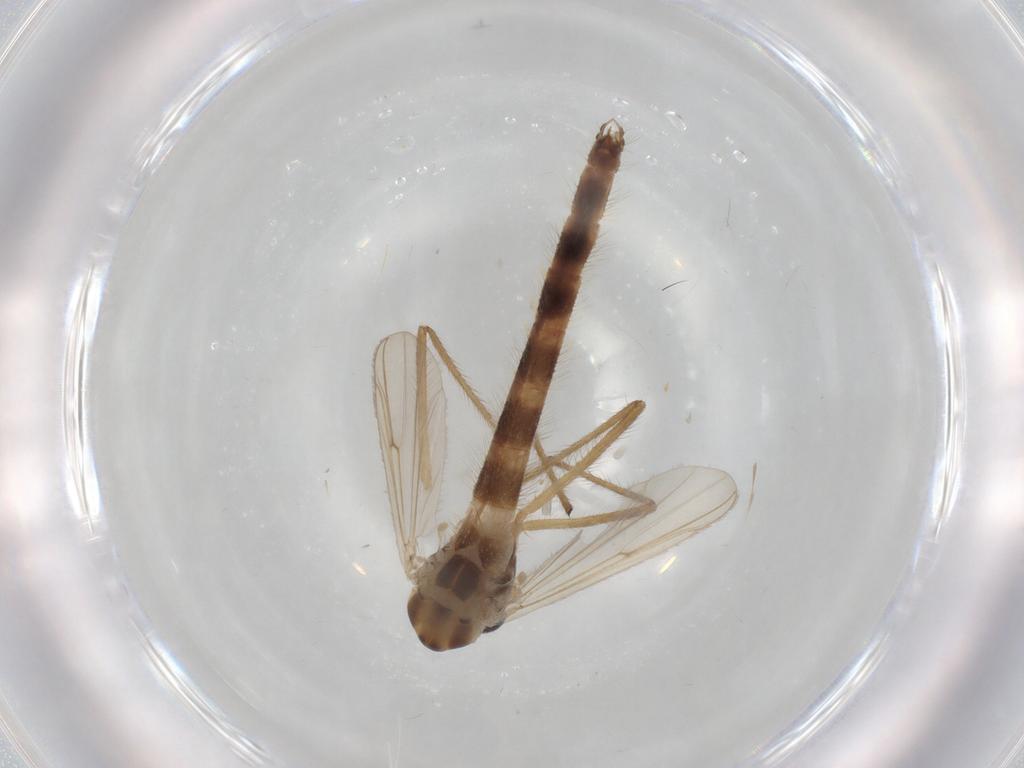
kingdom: Animalia
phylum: Arthropoda
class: Insecta
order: Diptera
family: Chironomidae
